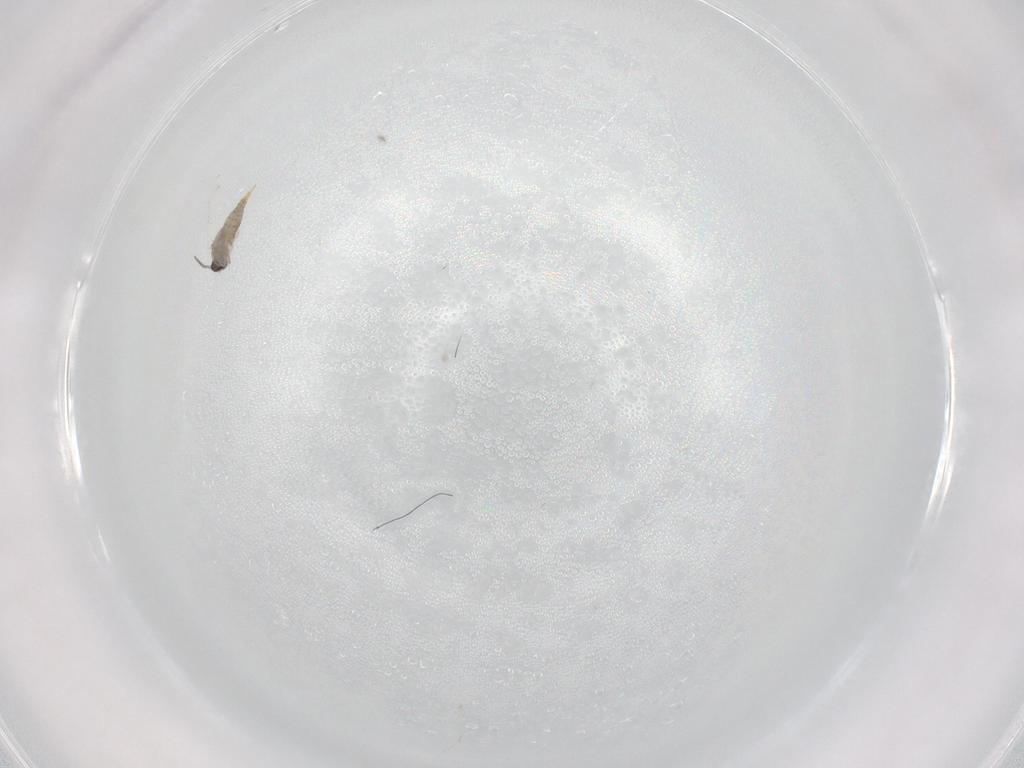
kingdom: Animalia
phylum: Arthropoda
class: Insecta
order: Diptera
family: Cecidomyiidae
